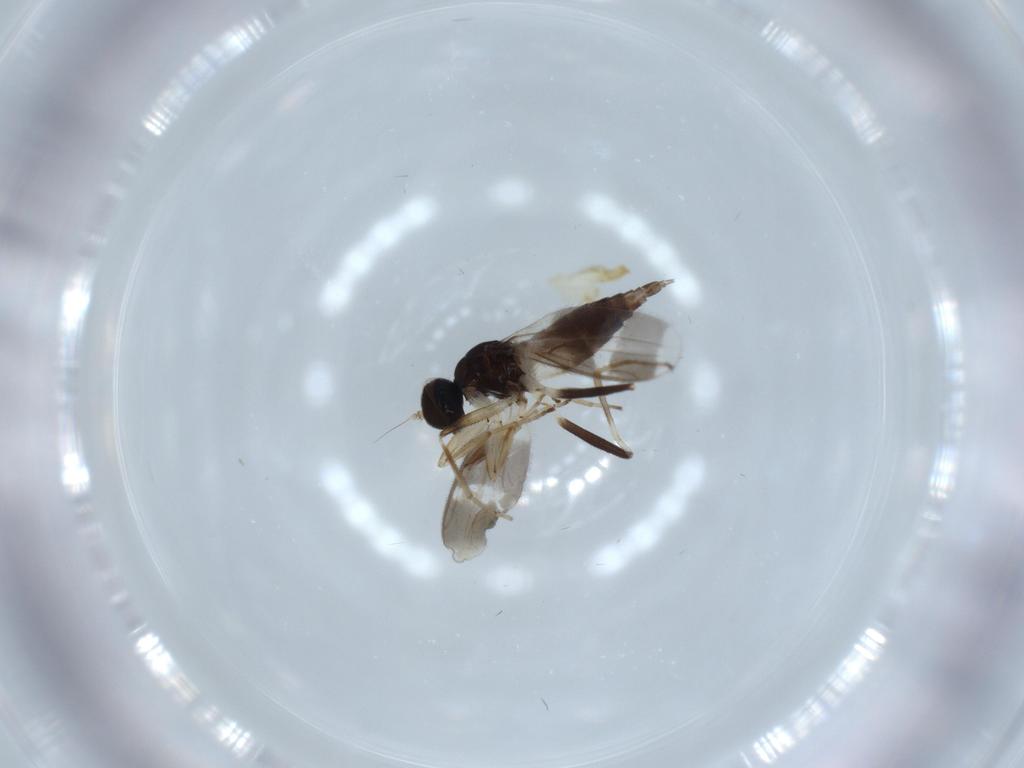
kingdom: Animalia
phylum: Arthropoda
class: Insecta
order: Diptera
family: Hybotidae
